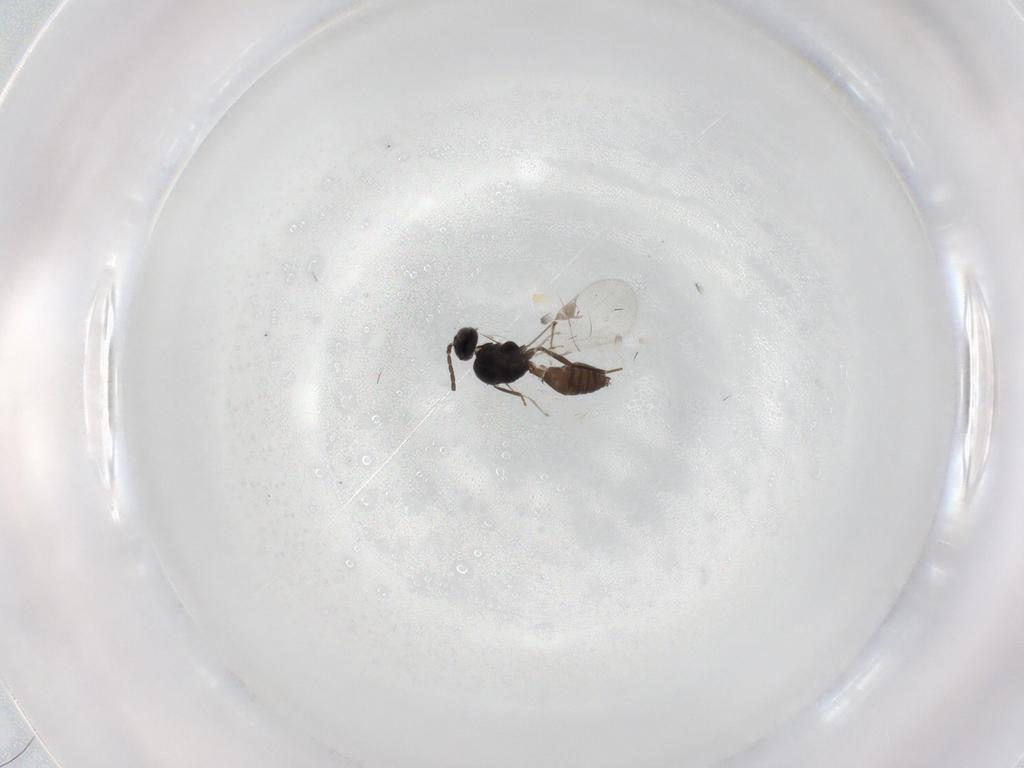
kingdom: Animalia
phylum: Arthropoda
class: Insecta
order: Hymenoptera
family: Braconidae
